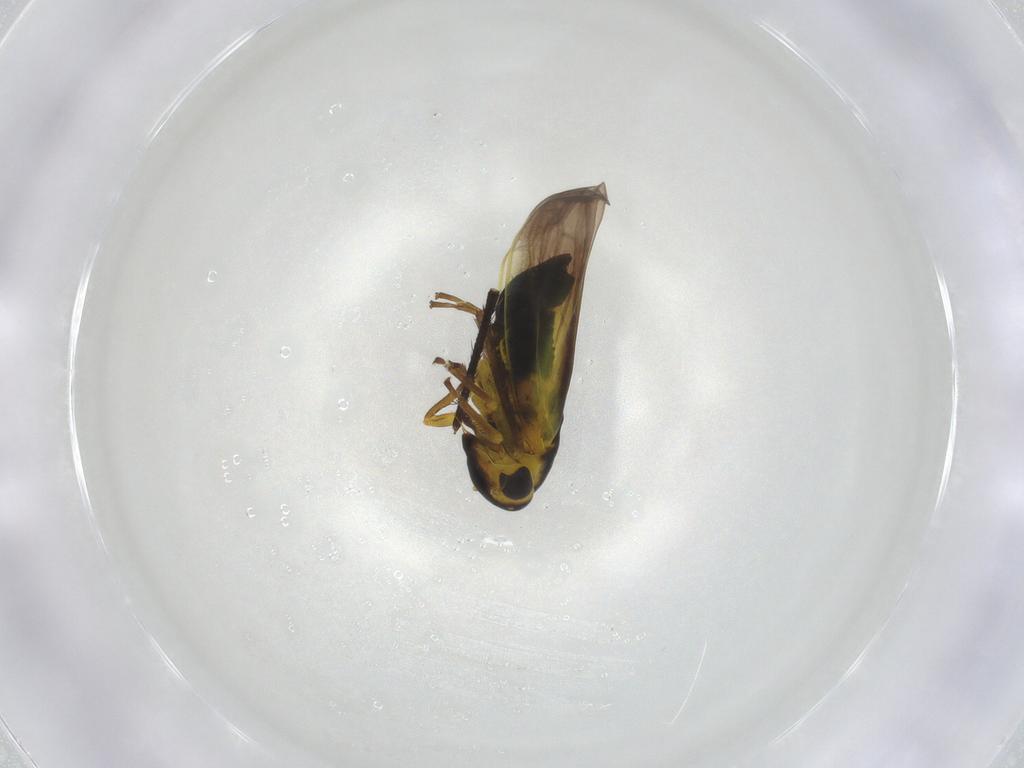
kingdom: Animalia
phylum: Arthropoda
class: Insecta
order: Hemiptera
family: Cicadellidae
